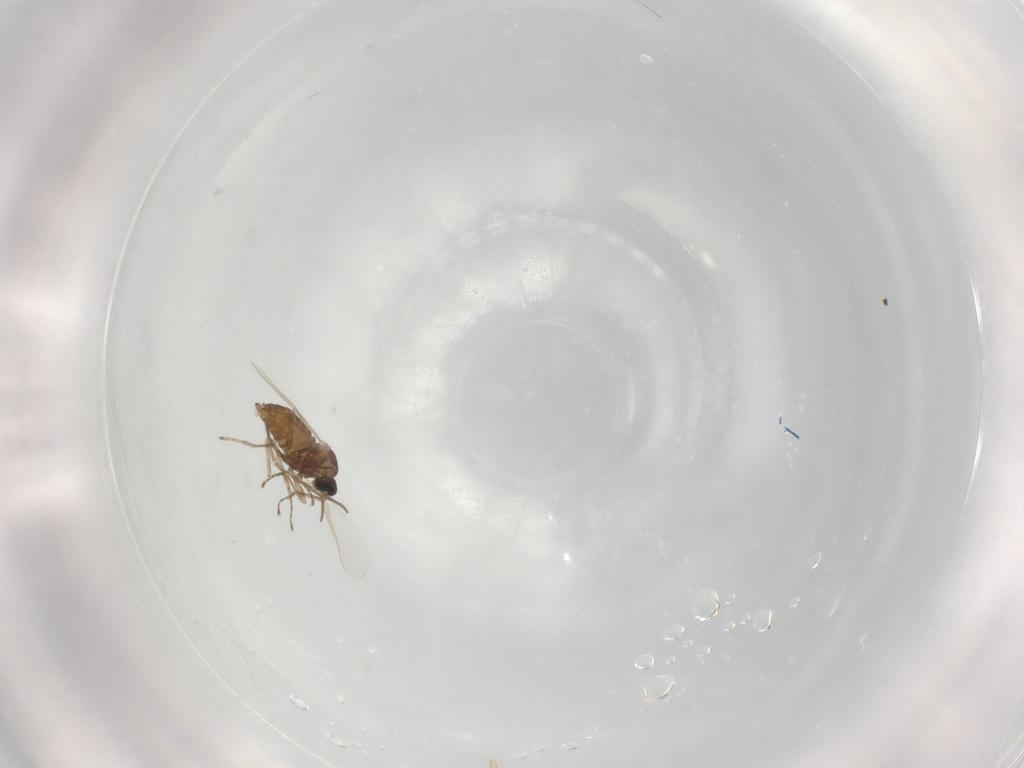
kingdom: Animalia
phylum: Arthropoda
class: Insecta
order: Diptera
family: Cecidomyiidae
